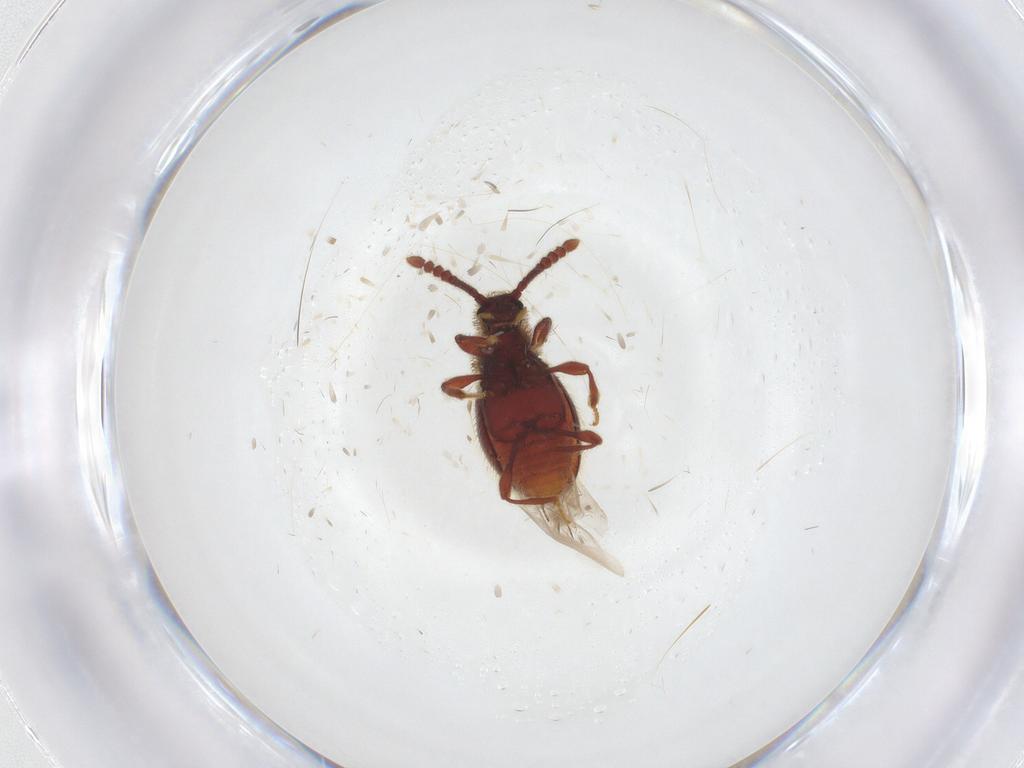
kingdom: Animalia
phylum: Arthropoda
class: Insecta
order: Coleoptera
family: Staphylinidae
